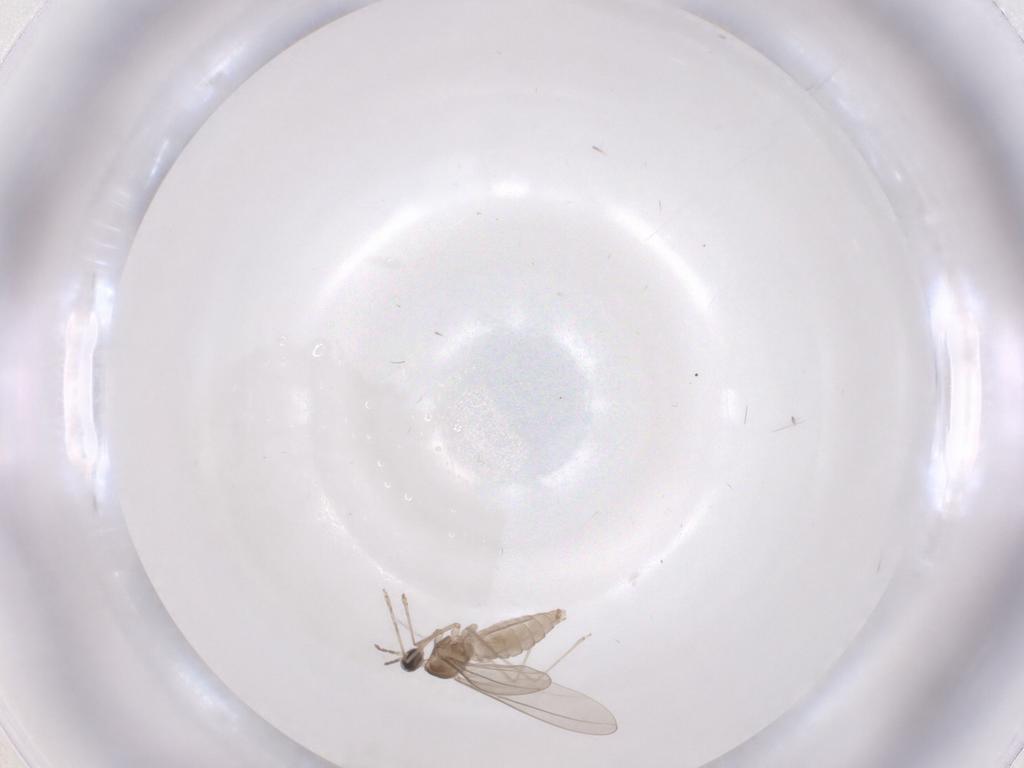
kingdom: Animalia
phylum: Arthropoda
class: Insecta
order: Diptera
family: Cecidomyiidae
